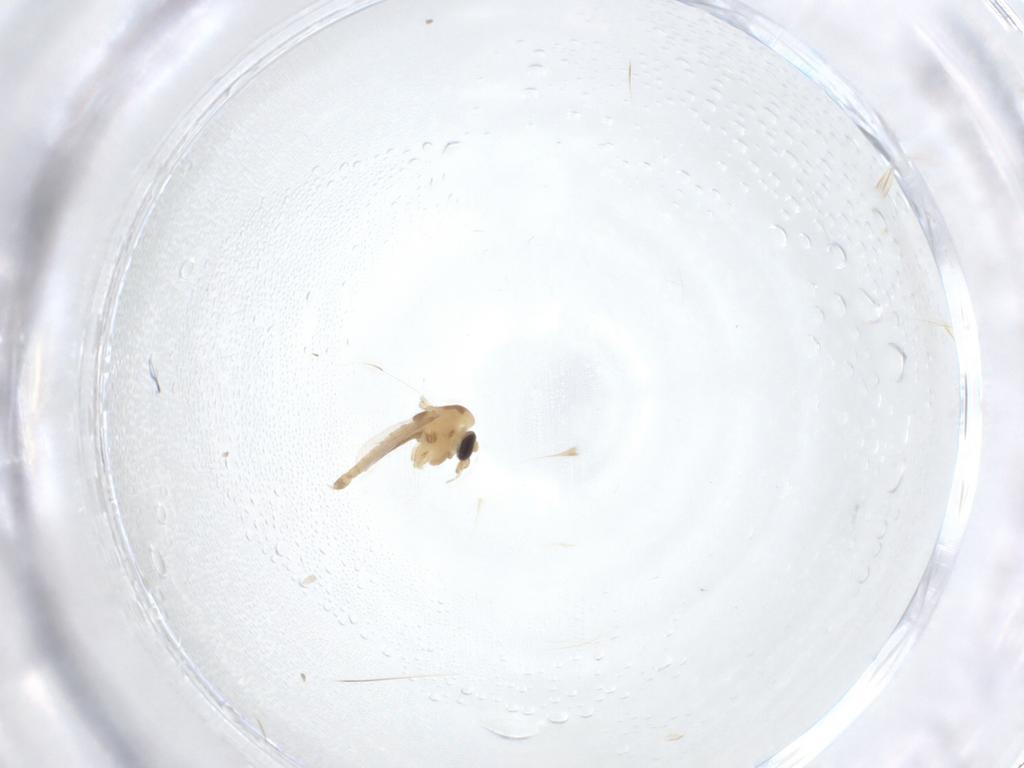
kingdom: Animalia
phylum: Arthropoda
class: Insecta
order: Diptera
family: Chironomidae
